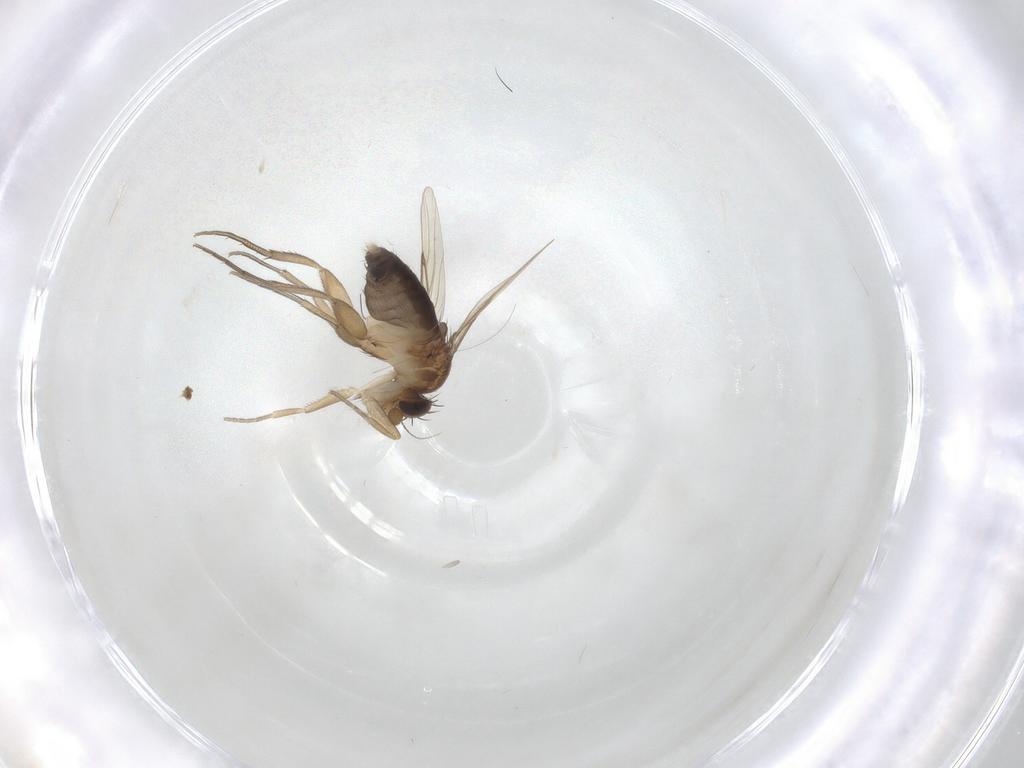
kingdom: Animalia
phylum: Arthropoda
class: Insecta
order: Diptera
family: Phoridae
